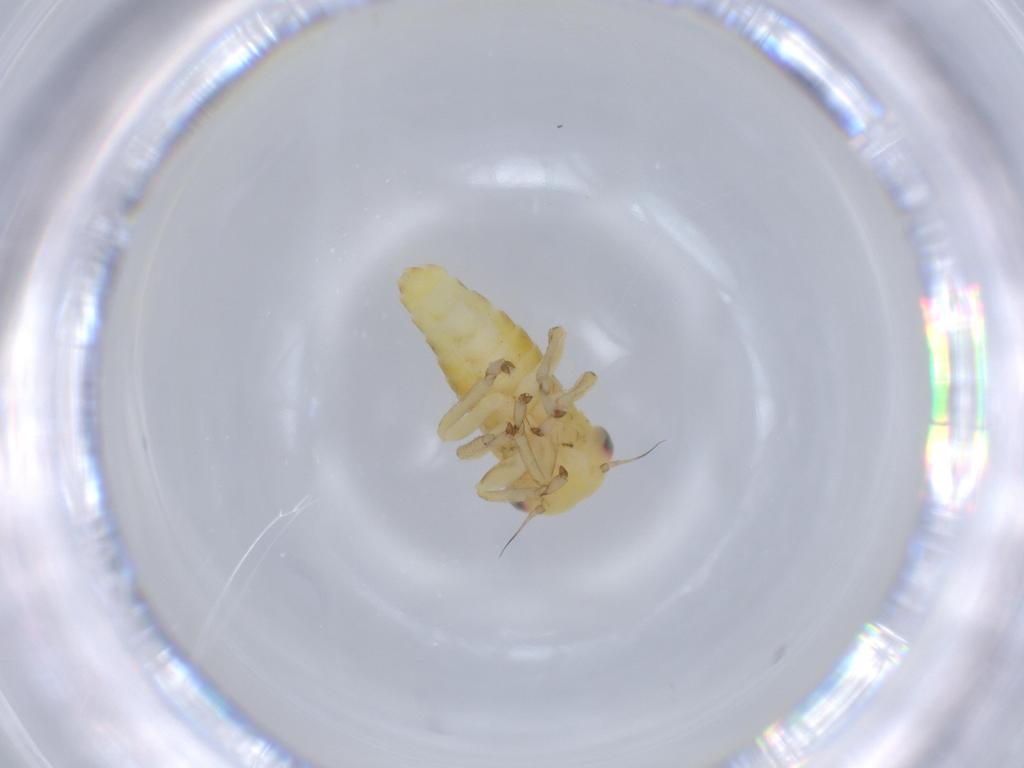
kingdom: Animalia
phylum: Arthropoda
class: Insecta
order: Hemiptera
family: Cicadellidae
